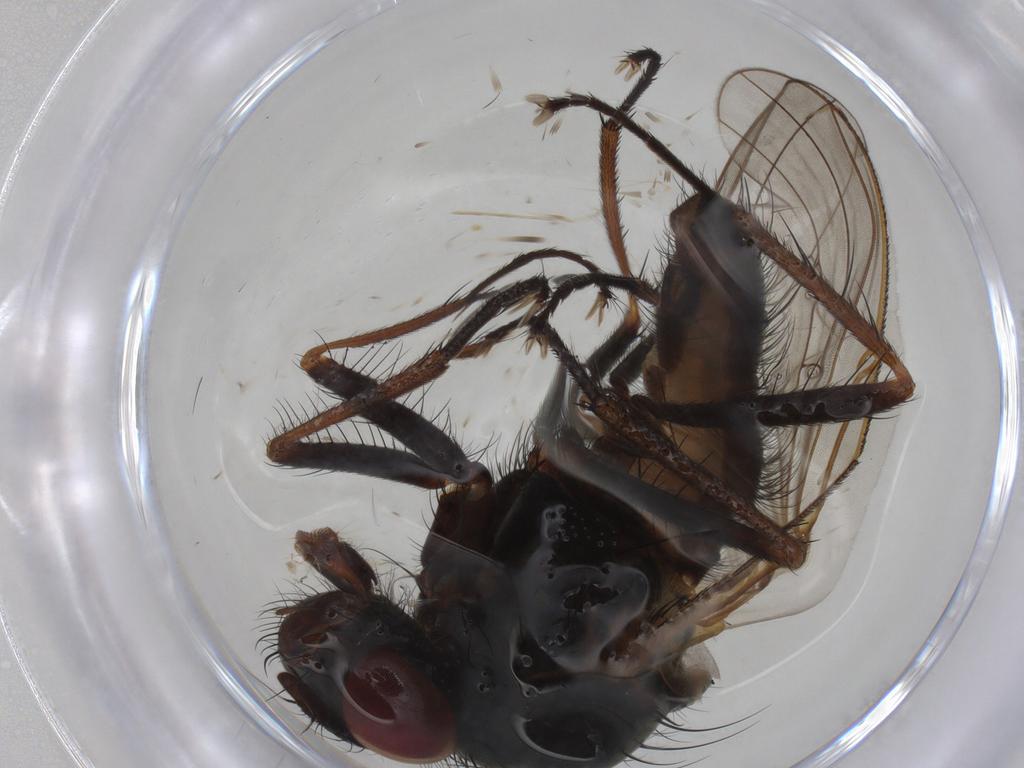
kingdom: Animalia
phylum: Arthropoda
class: Insecta
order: Diptera
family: Anthomyiidae
